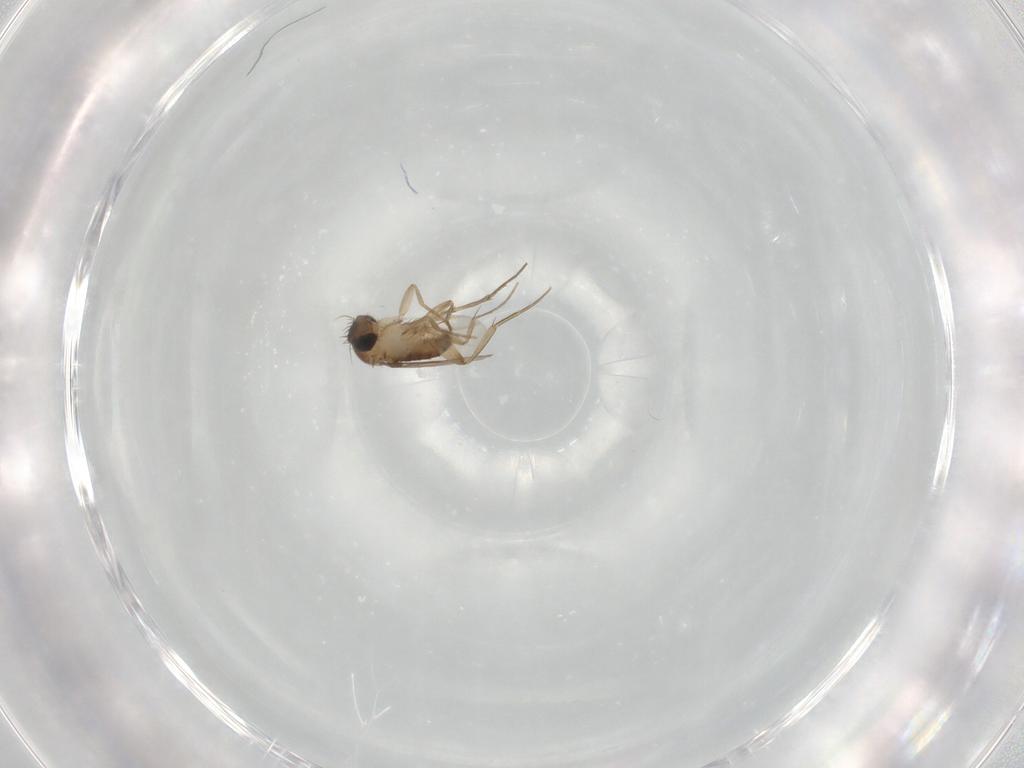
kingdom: Animalia
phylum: Arthropoda
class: Insecta
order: Diptera
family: Phoridae
